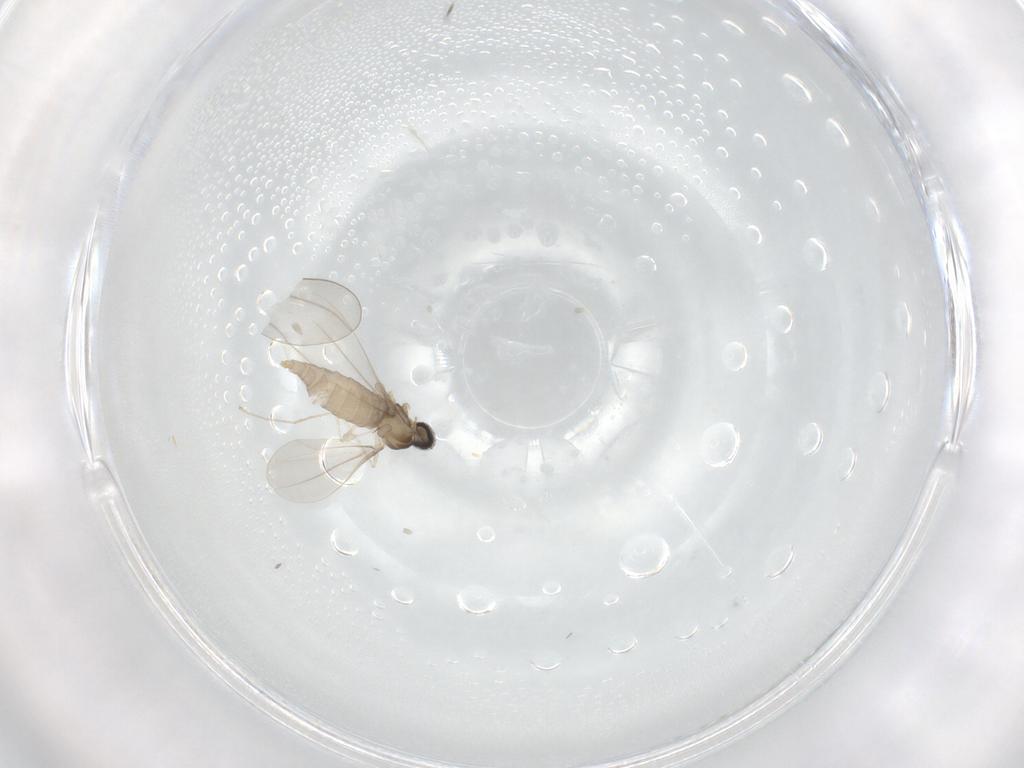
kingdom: Animalia
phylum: Arthropoda
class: Insecta
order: Diptera
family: Cecidomyiidae
